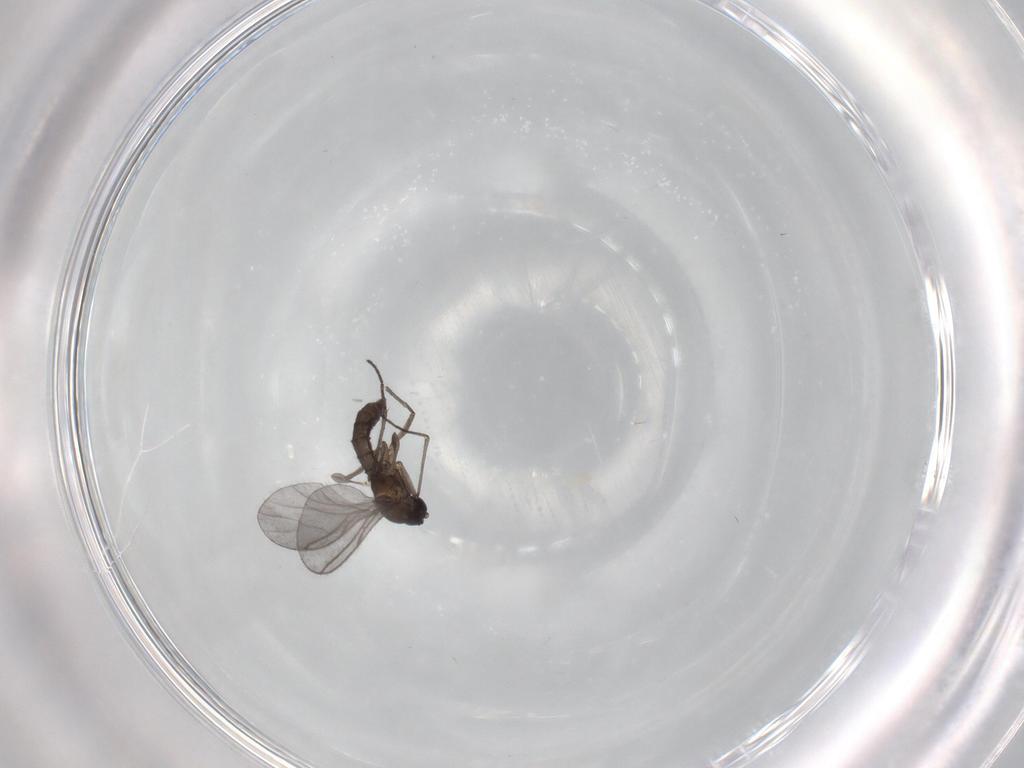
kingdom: Animalia
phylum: Arthropoda
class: Insecta
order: Diptera
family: Sciaridae
